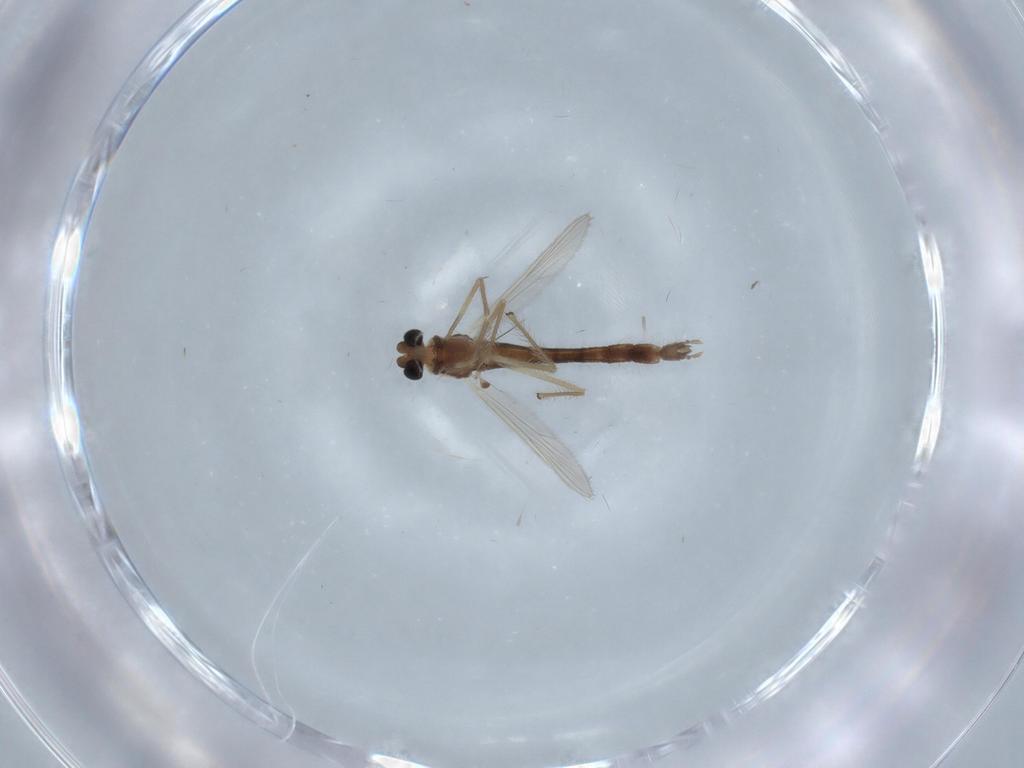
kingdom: Animalia
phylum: Arthropoda
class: Insecta
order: Diptera
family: Chironomidae
